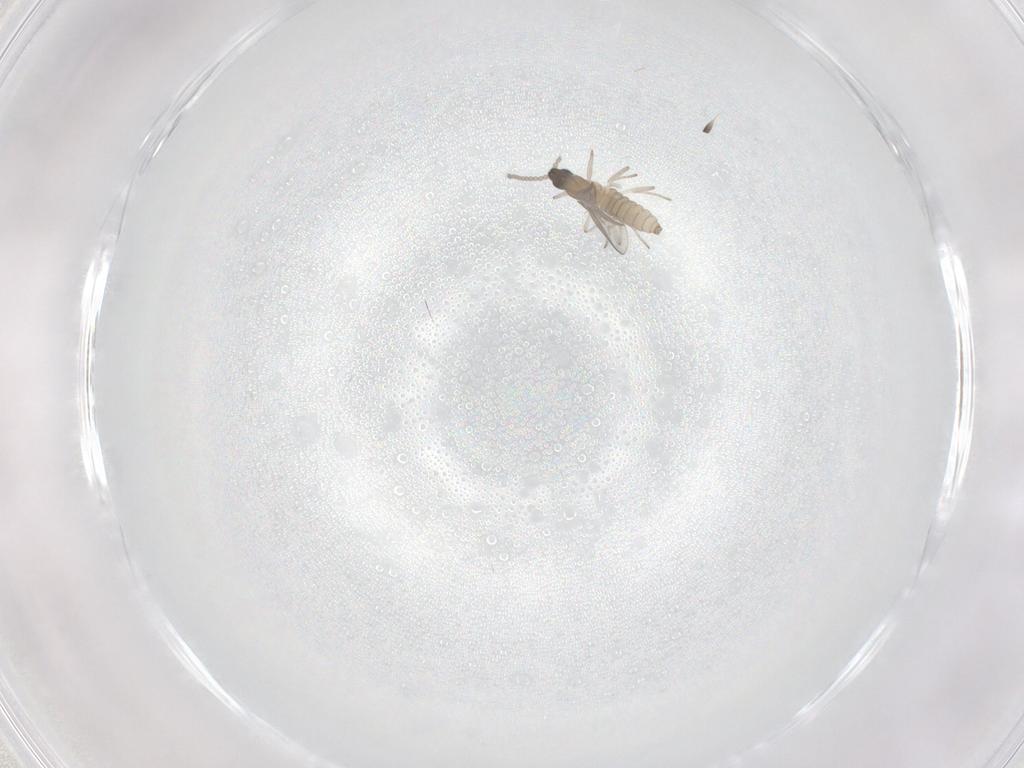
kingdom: Animalia
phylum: Arthropoda
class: Insecta
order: Diptera
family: Cecidomyiidae
